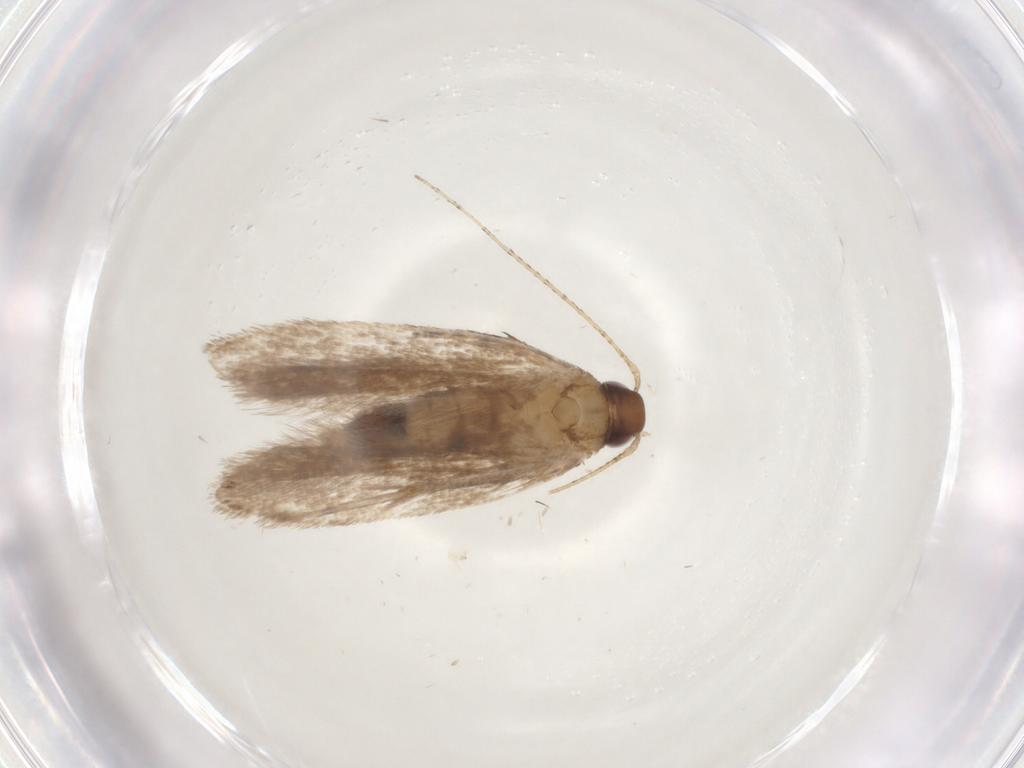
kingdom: Animalia
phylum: Arthropoda
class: Insecta
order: Lepidoptera
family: Gelechiidae
